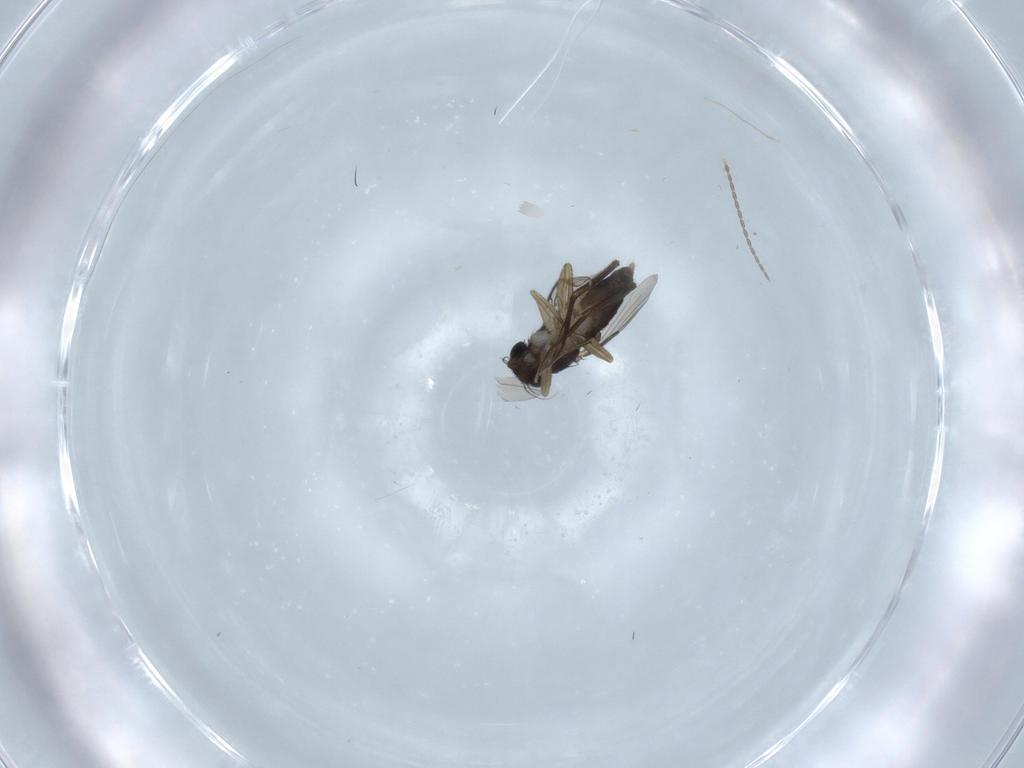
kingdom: Animalia
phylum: Arthropoda
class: Insecta
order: Diptera
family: Phoridae
